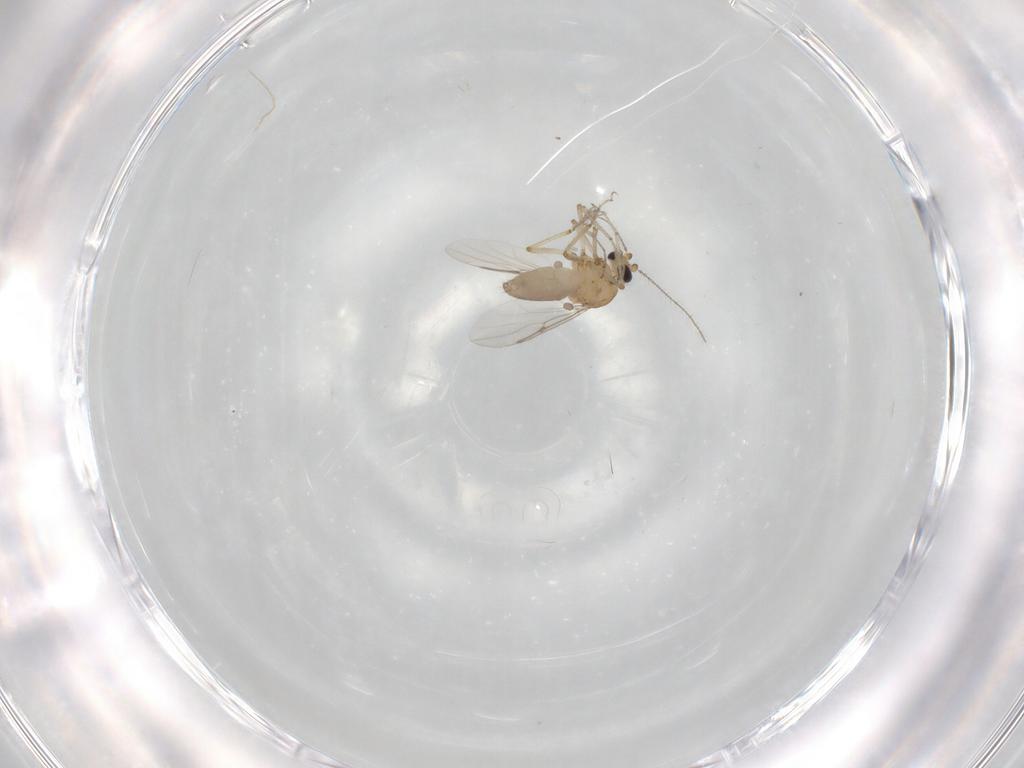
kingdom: Animalia
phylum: Arthropoda
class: Insecta
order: Diptera
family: Ceratopogonidae
